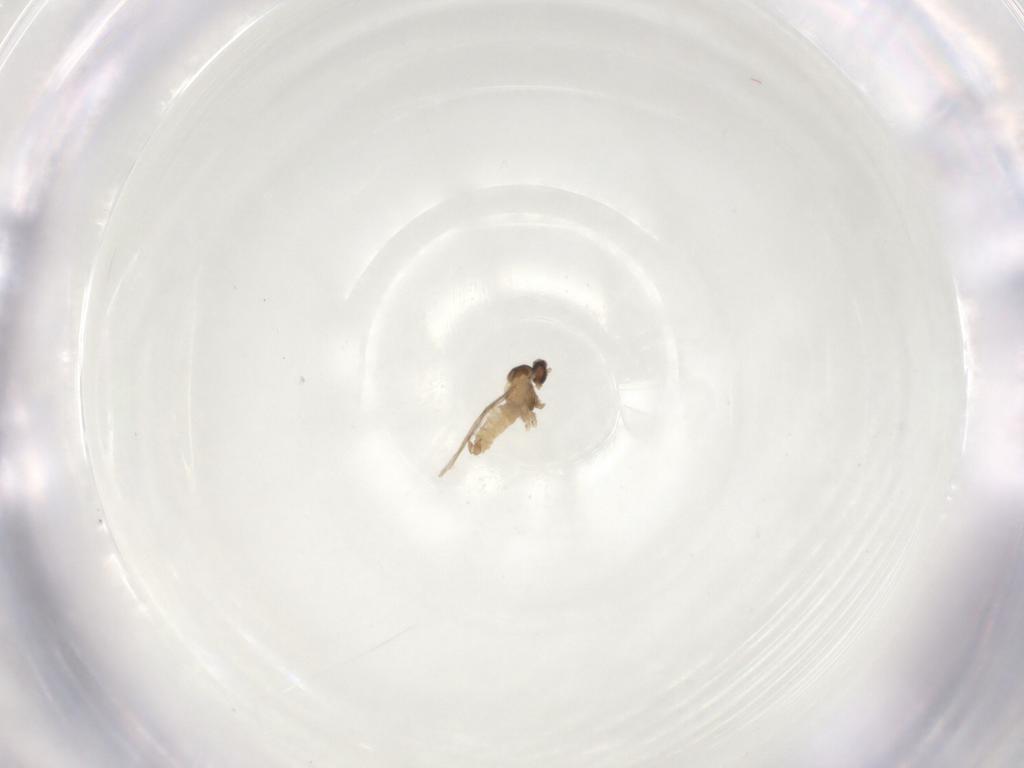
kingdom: Animalia
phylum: Arthropoda
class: Insecta
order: Diptera
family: Cecidomyiidae
